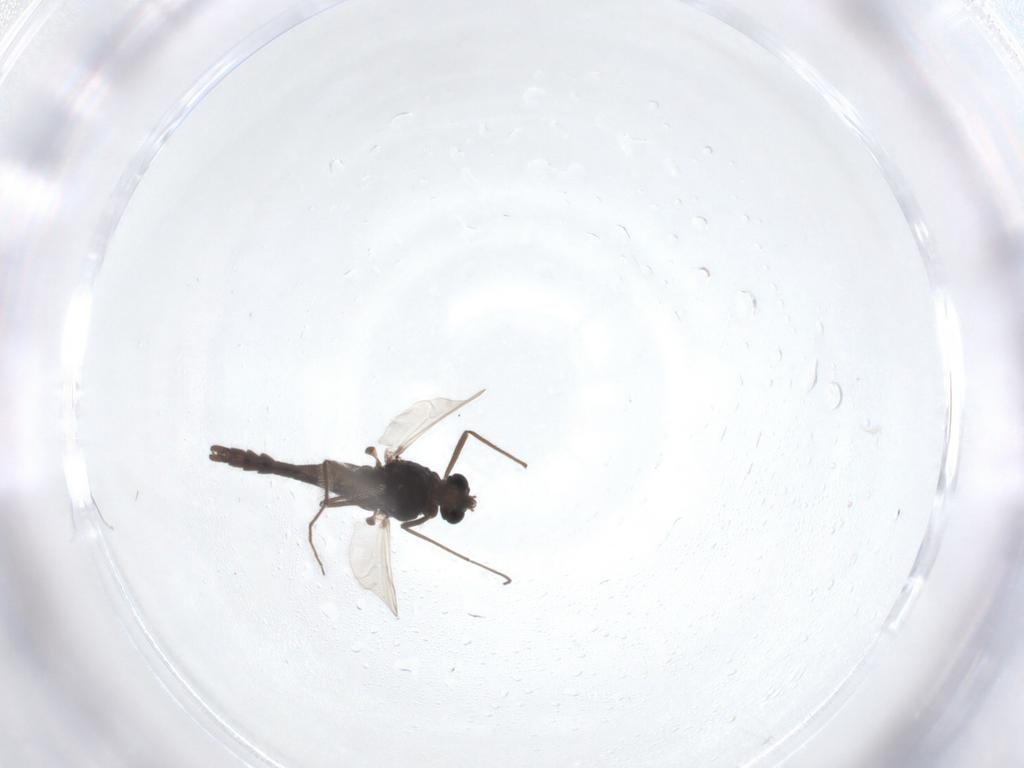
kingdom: Animalia
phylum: Arthropoda
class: Insecta
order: Diptera
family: Chironomidae
